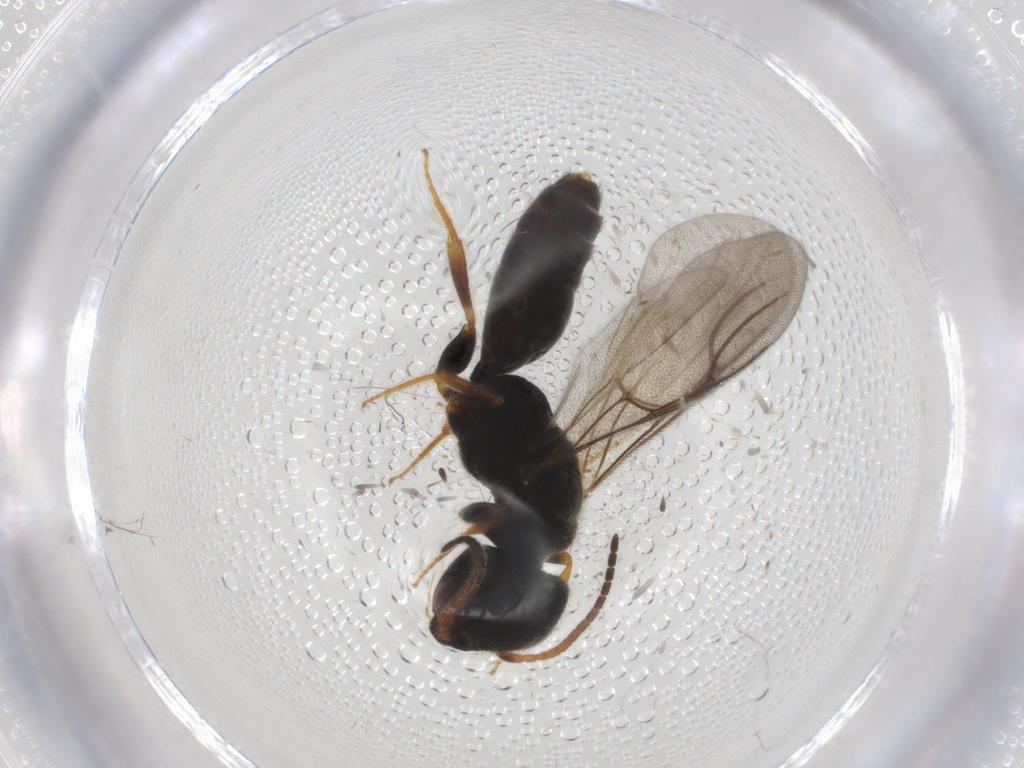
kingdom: Animalia
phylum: Arthropoda
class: Insecta
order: Hymenoptera
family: Bethylidae
